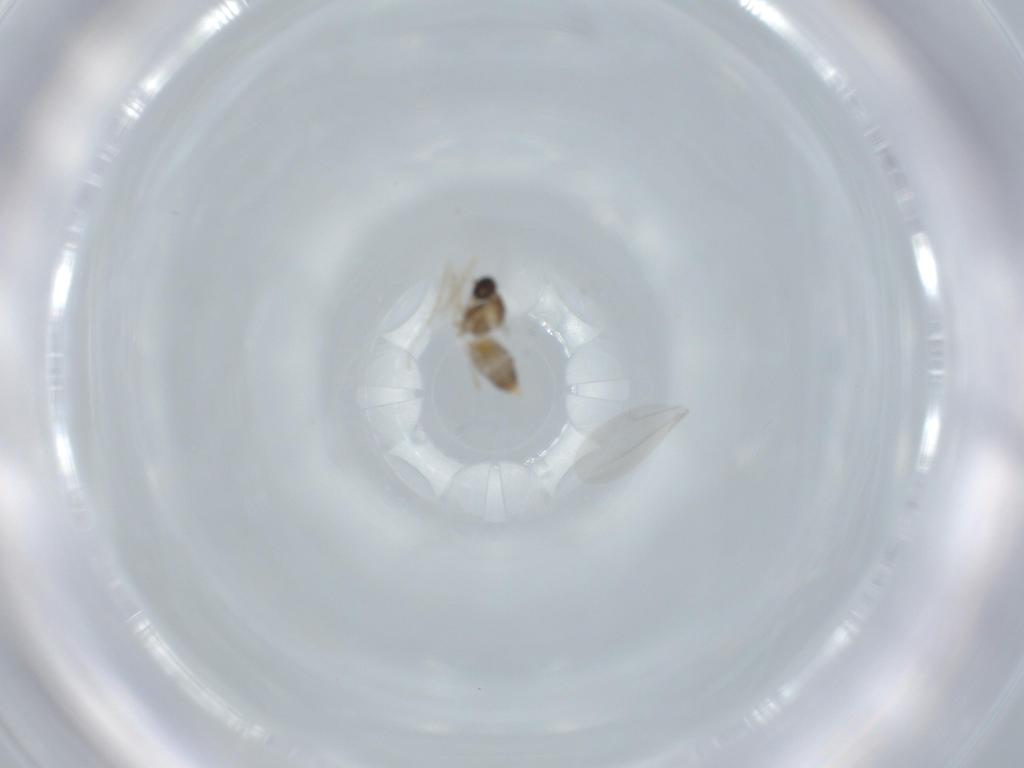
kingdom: Animalia
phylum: Arthropoda
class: Insecta
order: Diptera
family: Cecidomyiidae
